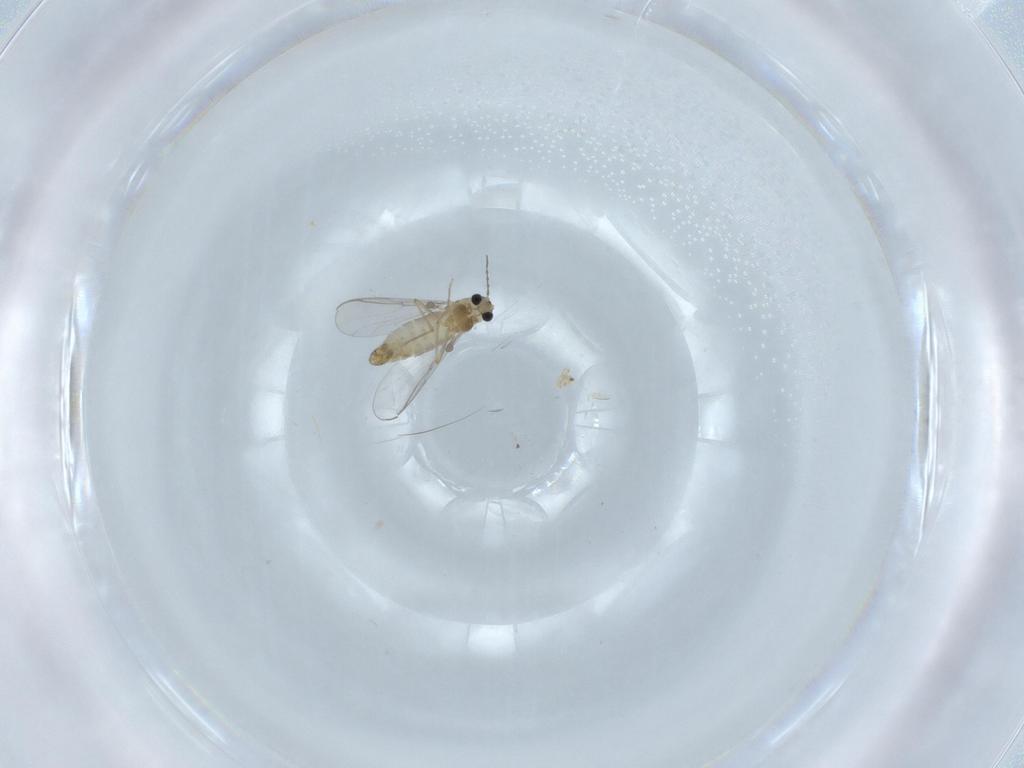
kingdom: Animalia
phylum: Arthropoda
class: Insecta
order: Diptera
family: Chironomidae
